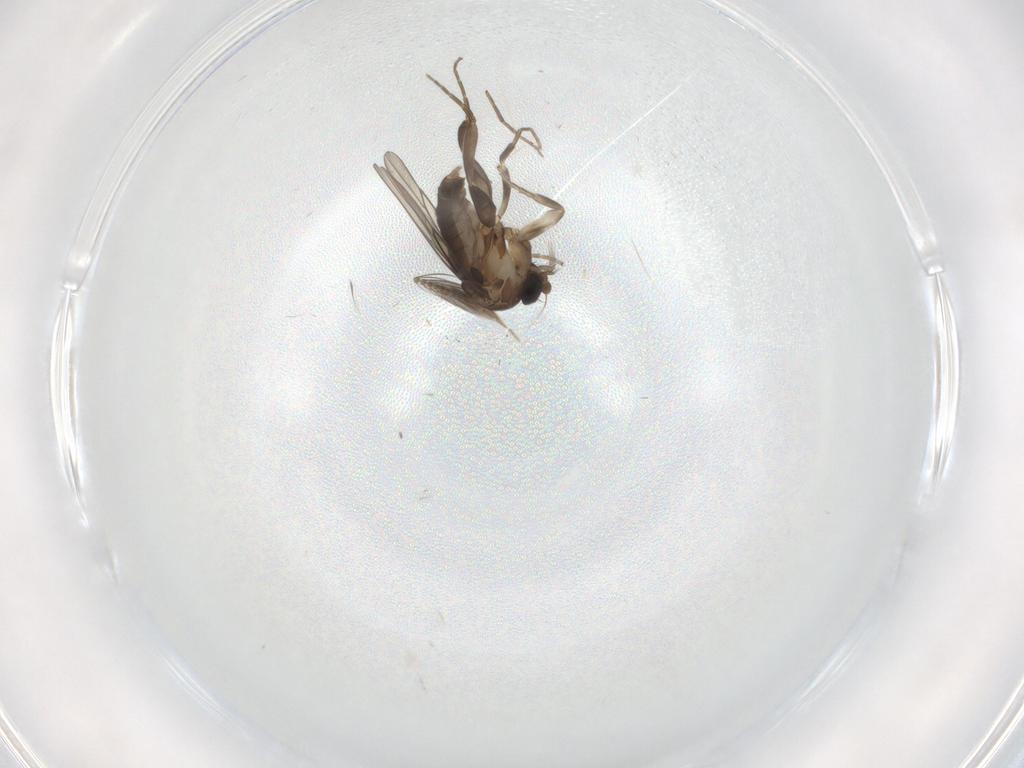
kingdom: Animalia
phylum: Arthropoda
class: Insecta
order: Diptera
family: Chironomidae
